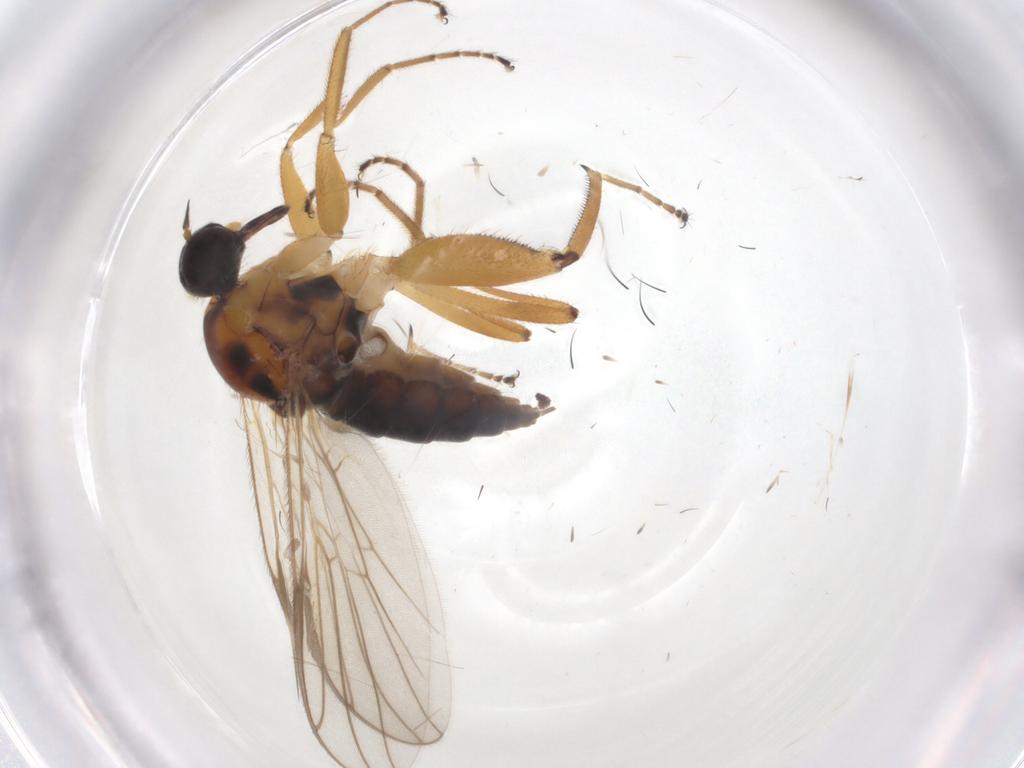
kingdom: Animalia
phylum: Arthropoda
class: Insecta
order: Diptera
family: Hybotidae
